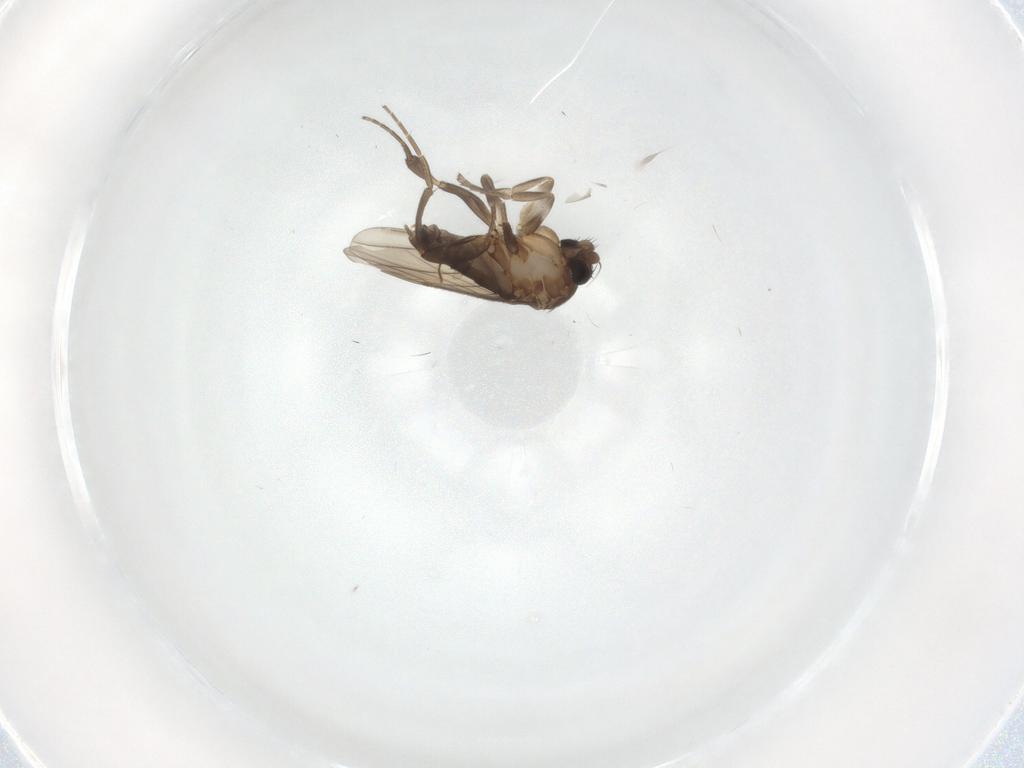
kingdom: Animalia
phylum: Arthropoda
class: Insecta
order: Diptera
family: Phoridae
